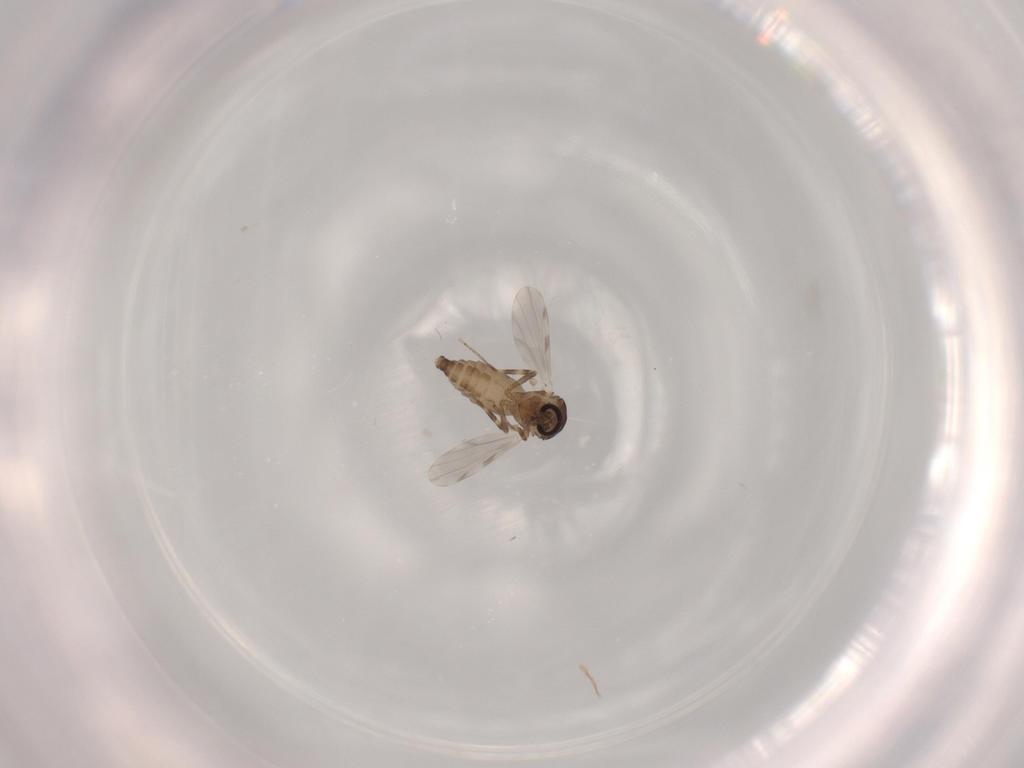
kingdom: Animalia
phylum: Arthropoda
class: Insecta
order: Diptera
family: Ceratopogonidae
